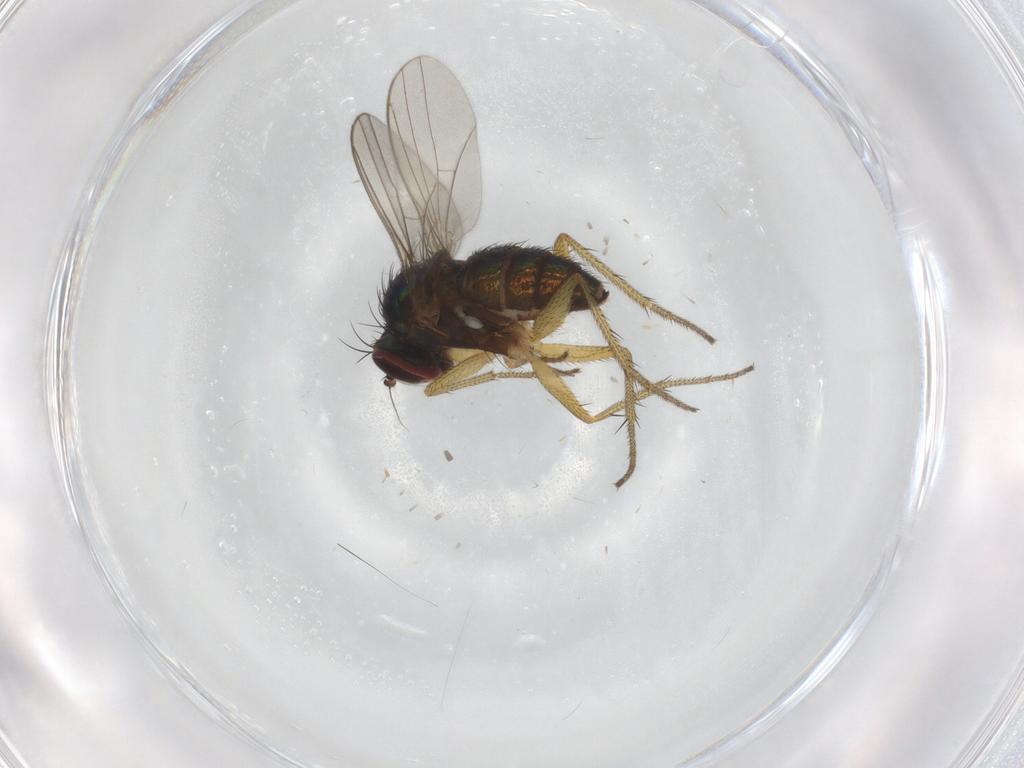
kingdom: Animalia
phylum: Arthropoda
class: Insecta
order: Diptera
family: Dolichopodidae
